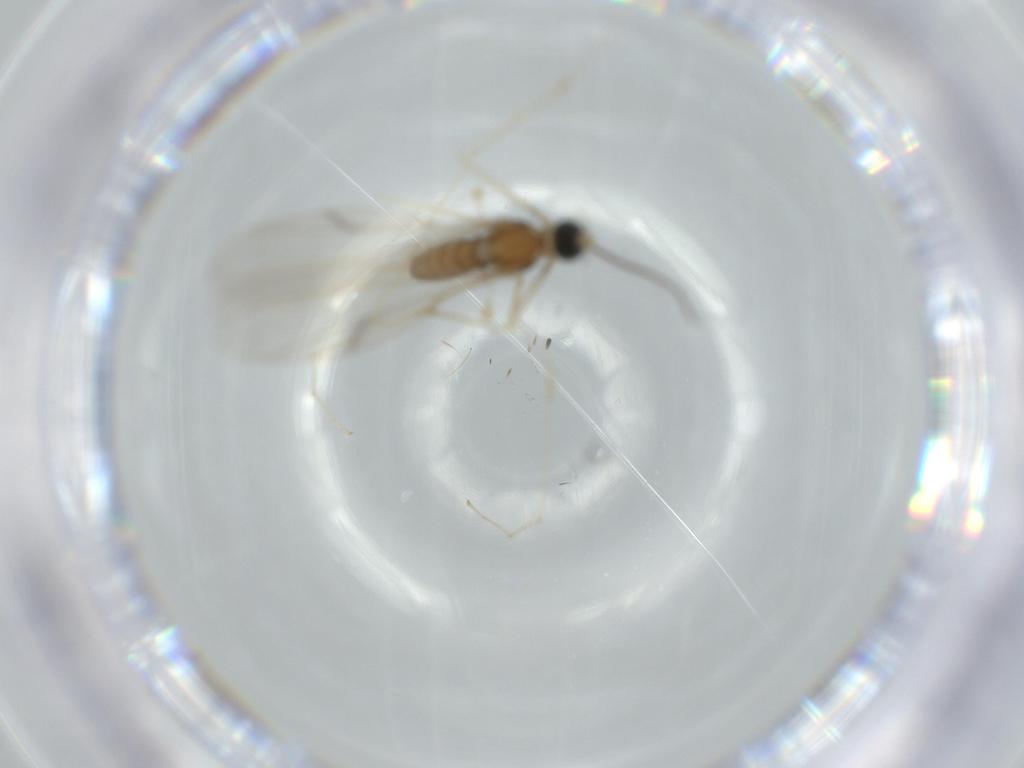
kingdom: Animalia
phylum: Arthropoda
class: Insecta
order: Diptera
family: Cecidomyiidae
